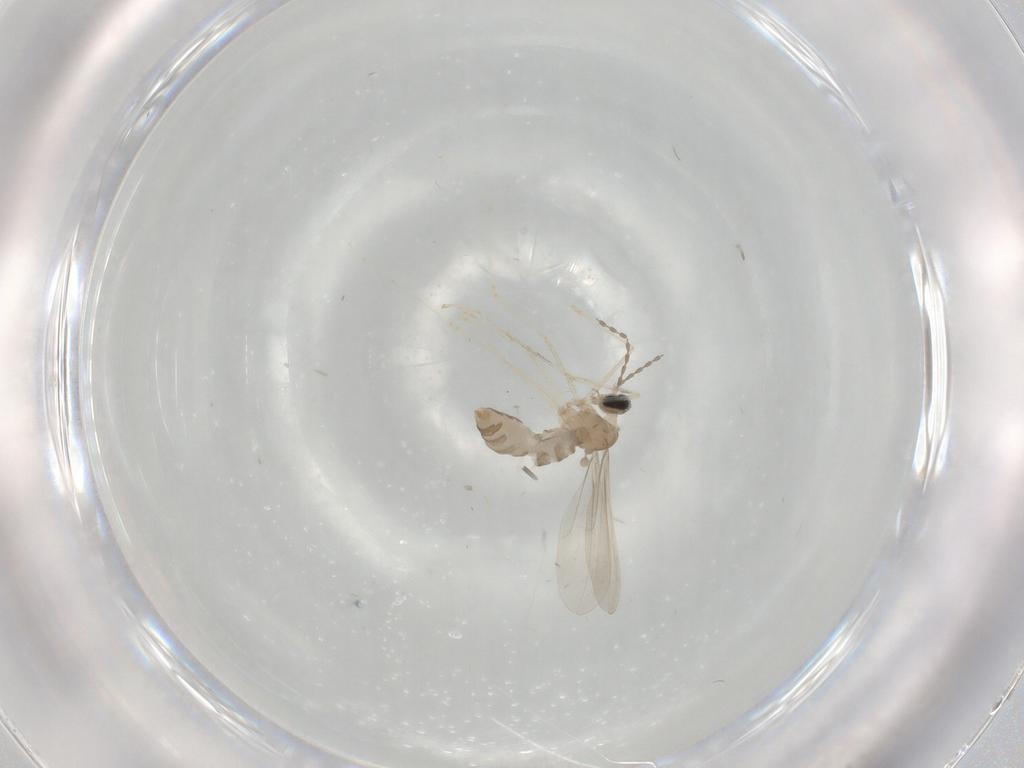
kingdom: Animalia
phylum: Arthropoda
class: Insecta
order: Diptera
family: Cecidomyiidae
